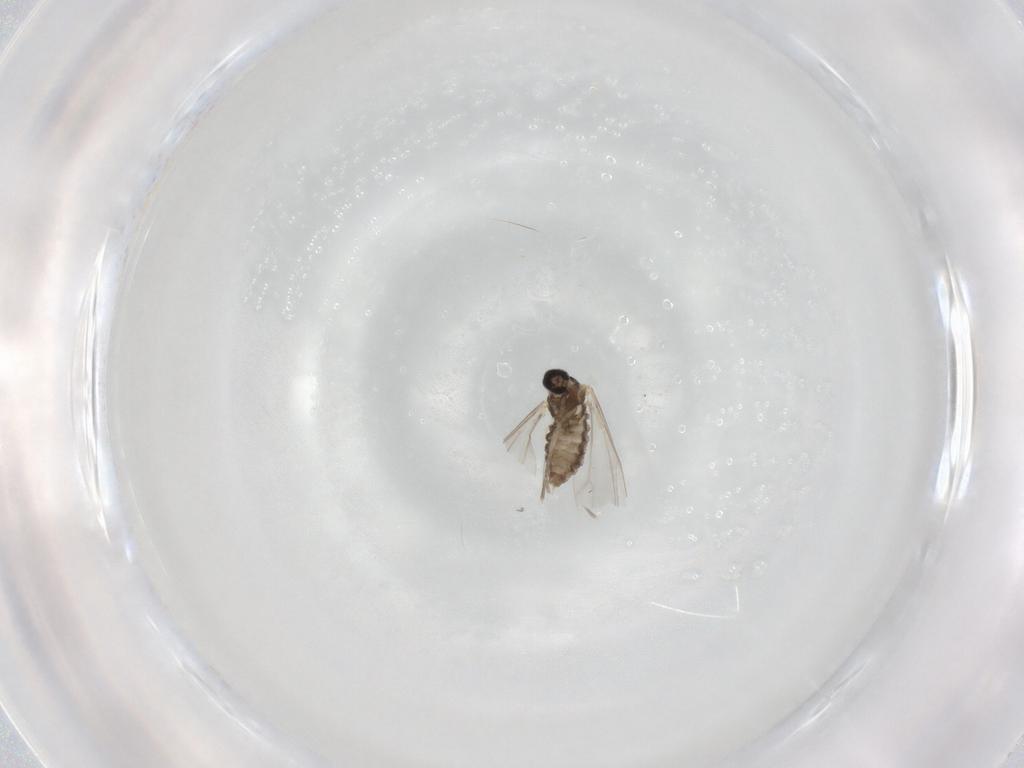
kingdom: Animalia
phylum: Arthropoda
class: Insecta
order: Diptera
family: Cecidomyiidae
